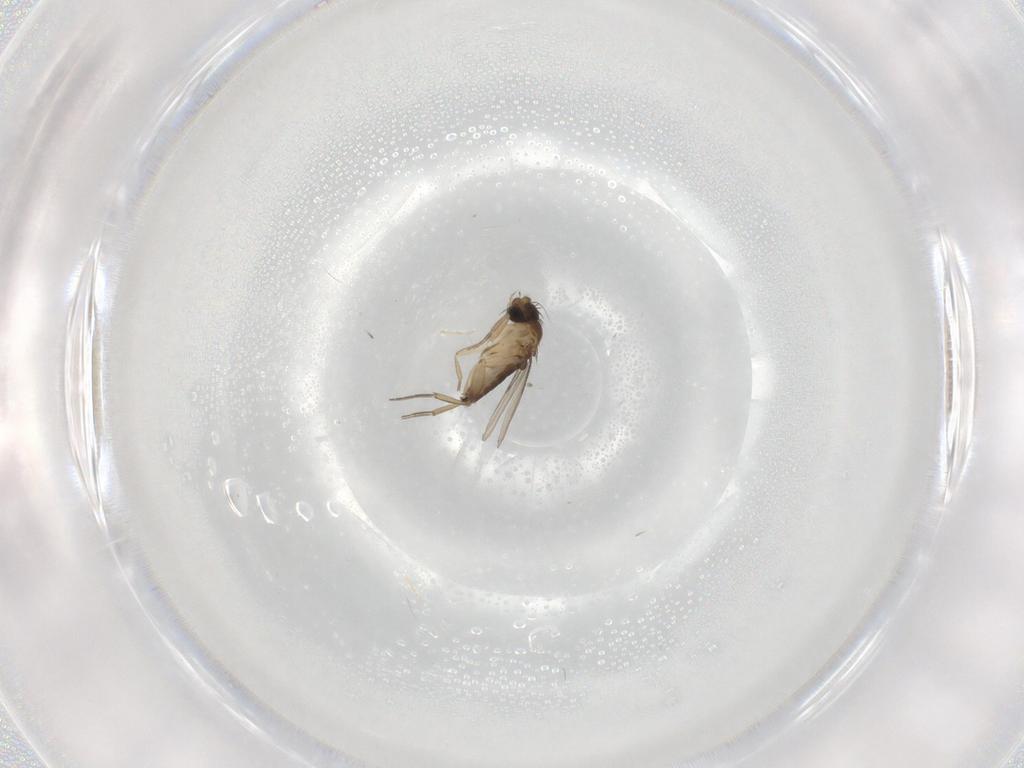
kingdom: Animalia
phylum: Arthropoda
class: Insecta
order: Diptera
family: Phoridae
